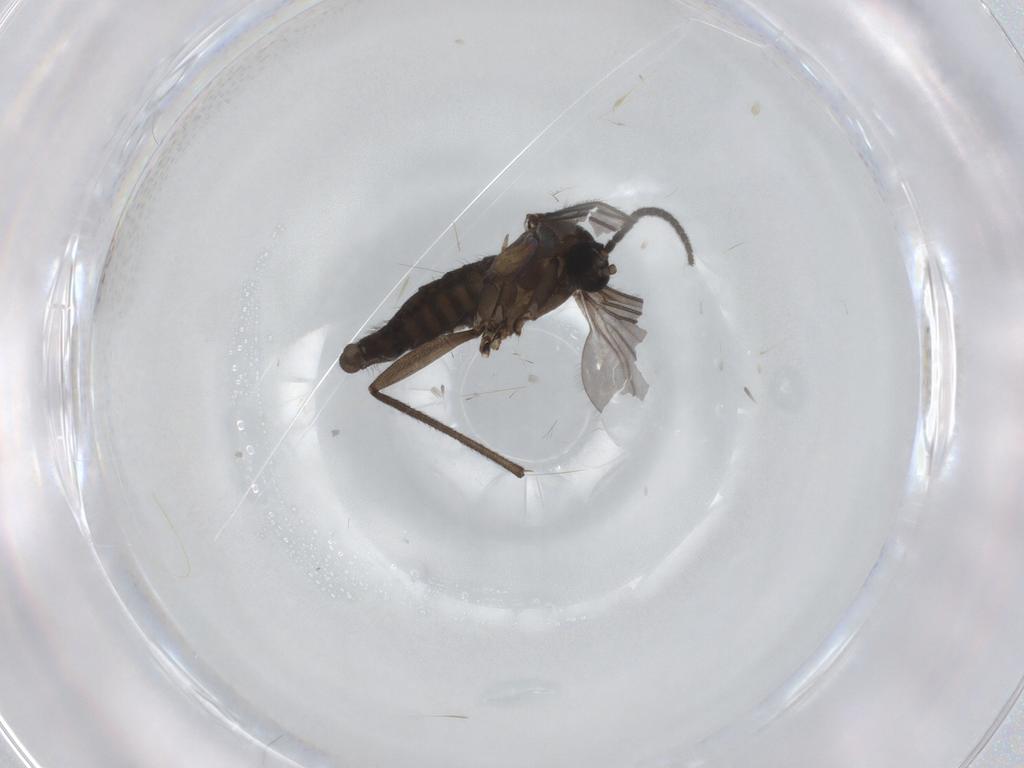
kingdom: Animalia
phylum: Arthropoda
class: Insecta
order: Diptera
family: Sciaridae
